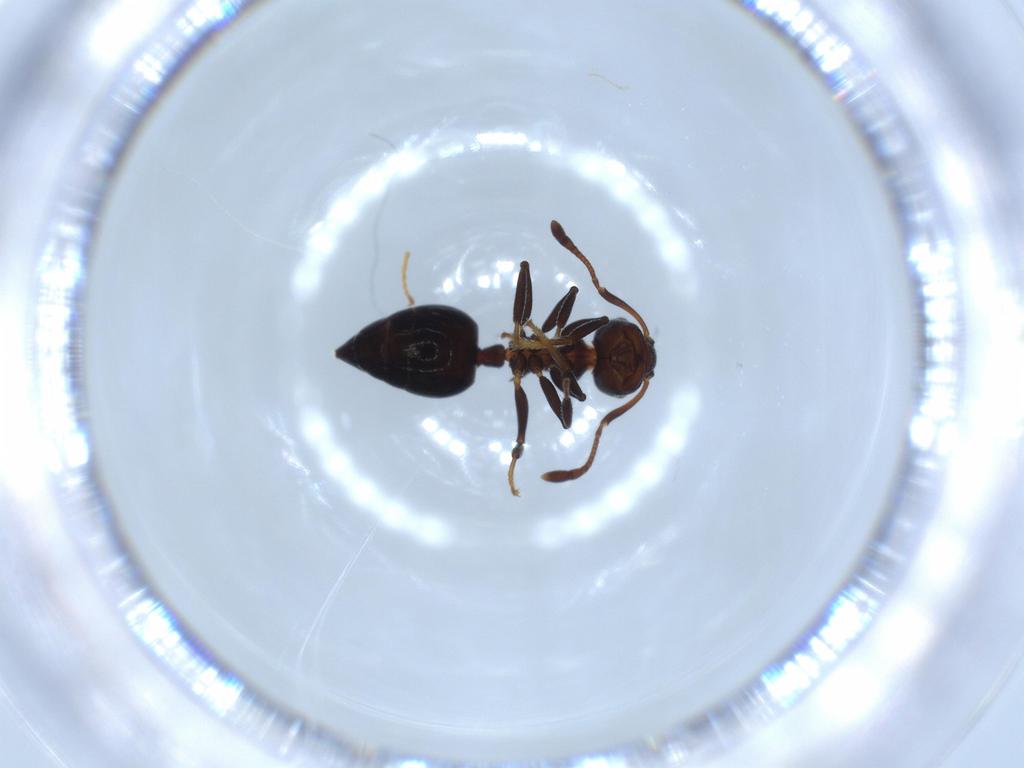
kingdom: Animalia
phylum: Arthropoda
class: Insecta
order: Hymenoptera
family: Formicidae
